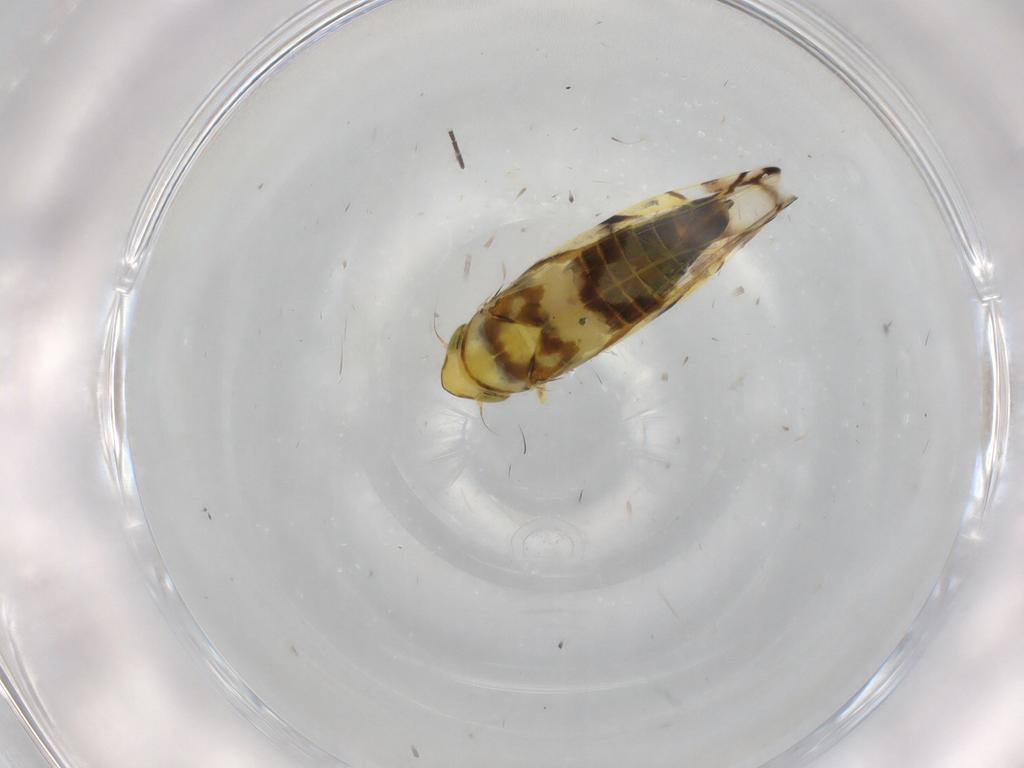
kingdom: Animalia
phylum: Arthropoda
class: Insecta
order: Hemiptera
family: Cicadellidae
